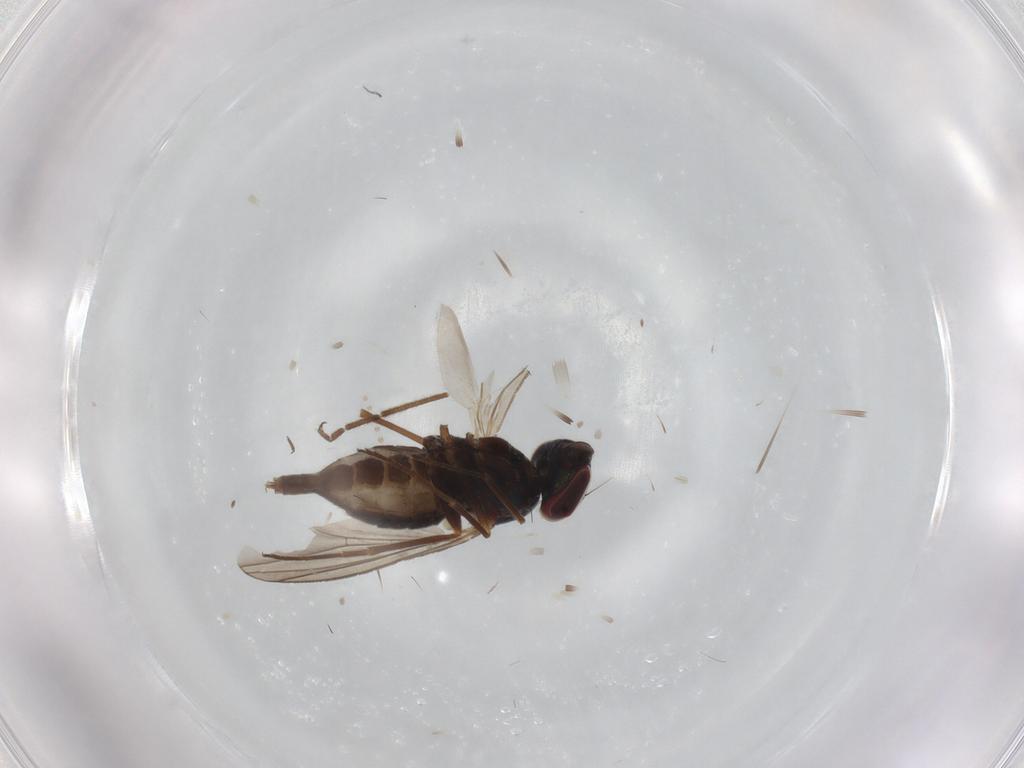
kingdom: Animalia
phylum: Arthropoda
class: Insecta
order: Diptera
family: Dolichopodidae
